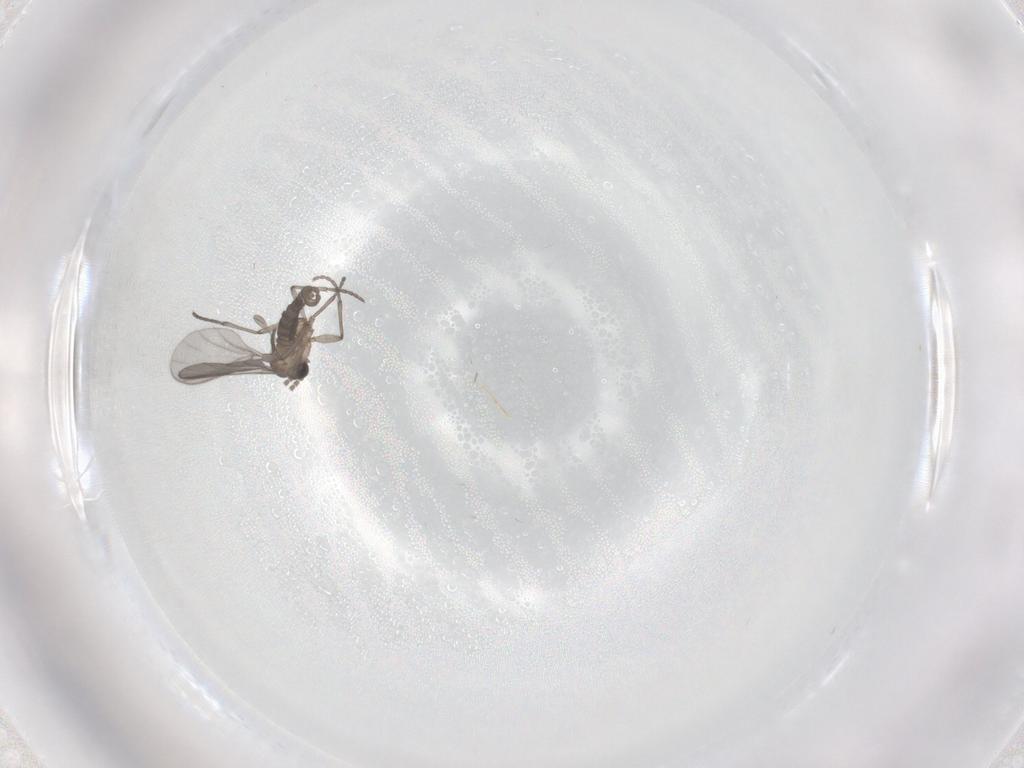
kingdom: Animalia
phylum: Arthropoda
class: Insecta
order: Diptera
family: Sciaridae
